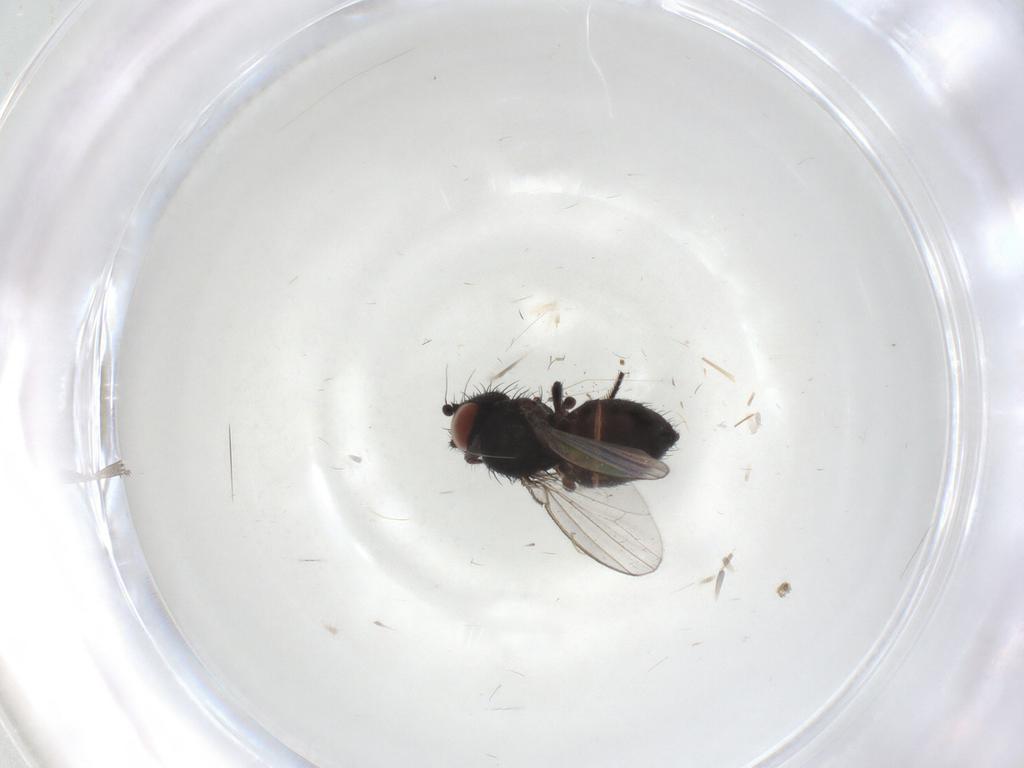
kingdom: Animalia
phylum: Arthropoda
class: Insecta
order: Diptera
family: Milichiidae
